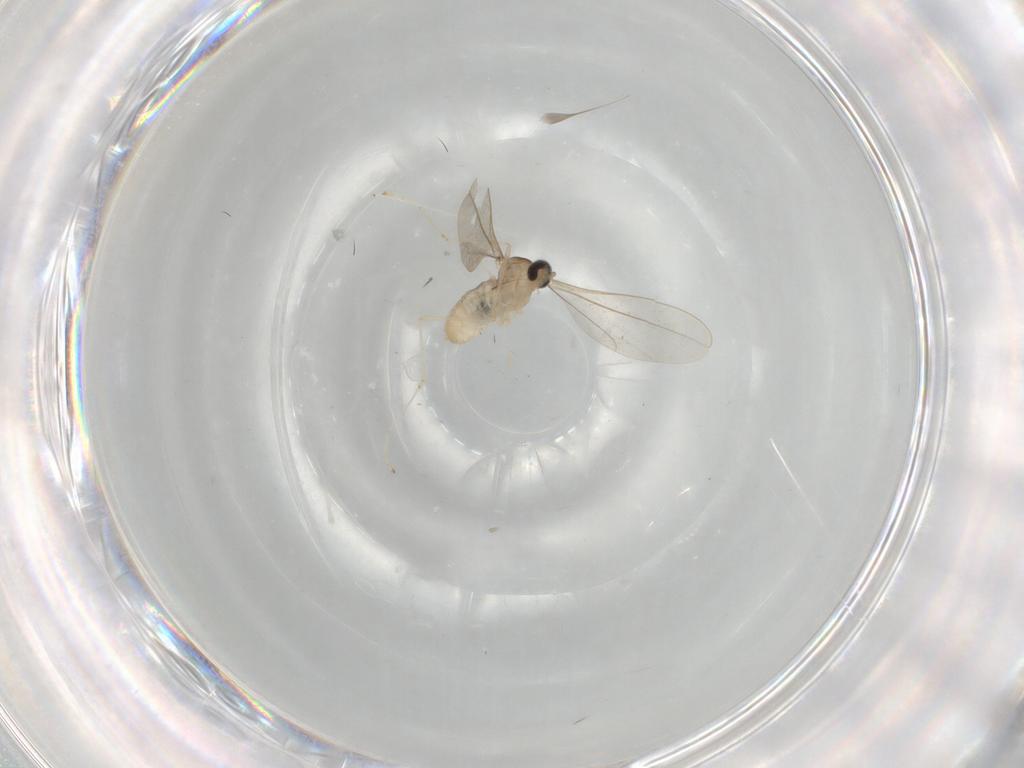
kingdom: Animalia
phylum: Arthropoda
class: Insecta
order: Diptera
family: Cecidomyiidae
